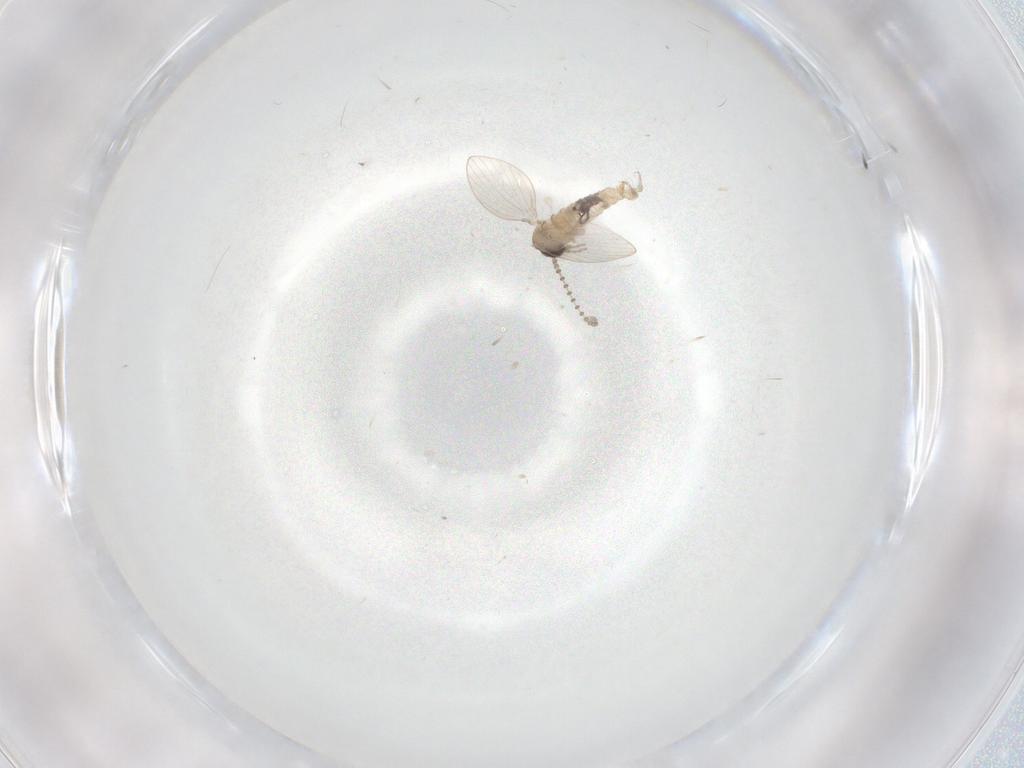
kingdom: Animalia
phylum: Arthropoda
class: Insecta
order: Diptera
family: Psychodidae
